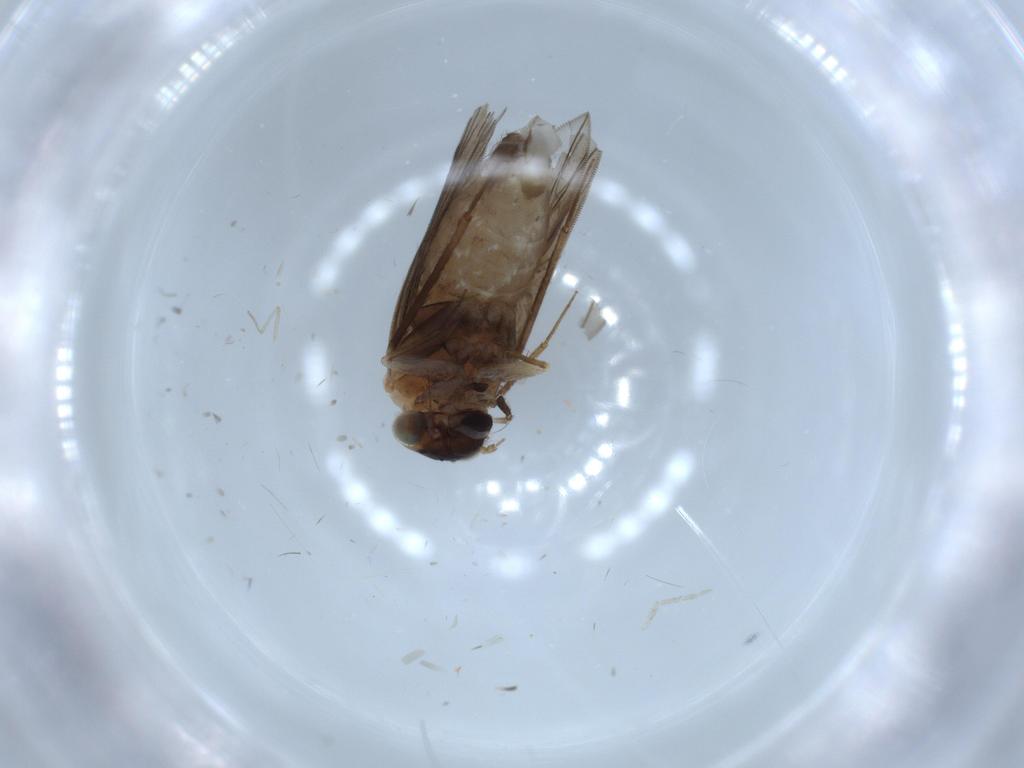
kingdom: Animalia
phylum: Arthropoda
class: Insecta
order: Psocodea
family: Lepidopsocidae
